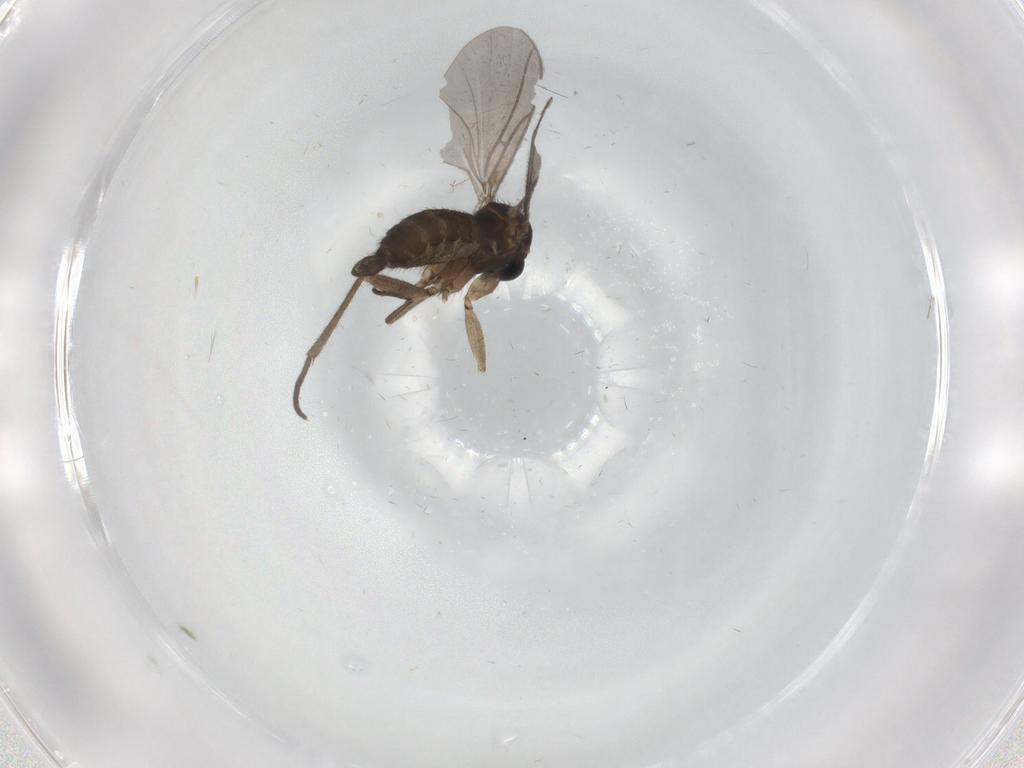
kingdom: Animalia
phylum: Arthropoda
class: Insecta
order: Diptera
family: Sciaridae
